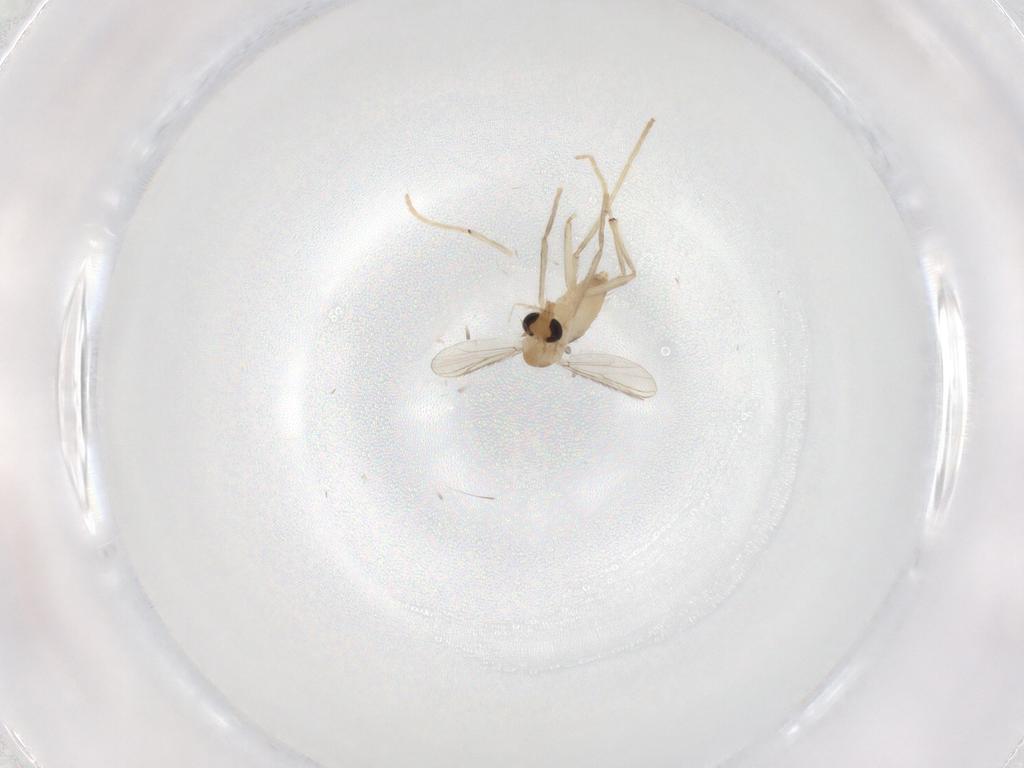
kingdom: Animalia
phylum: Arthropoda
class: Insecta
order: Diptera
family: Chironomidae
